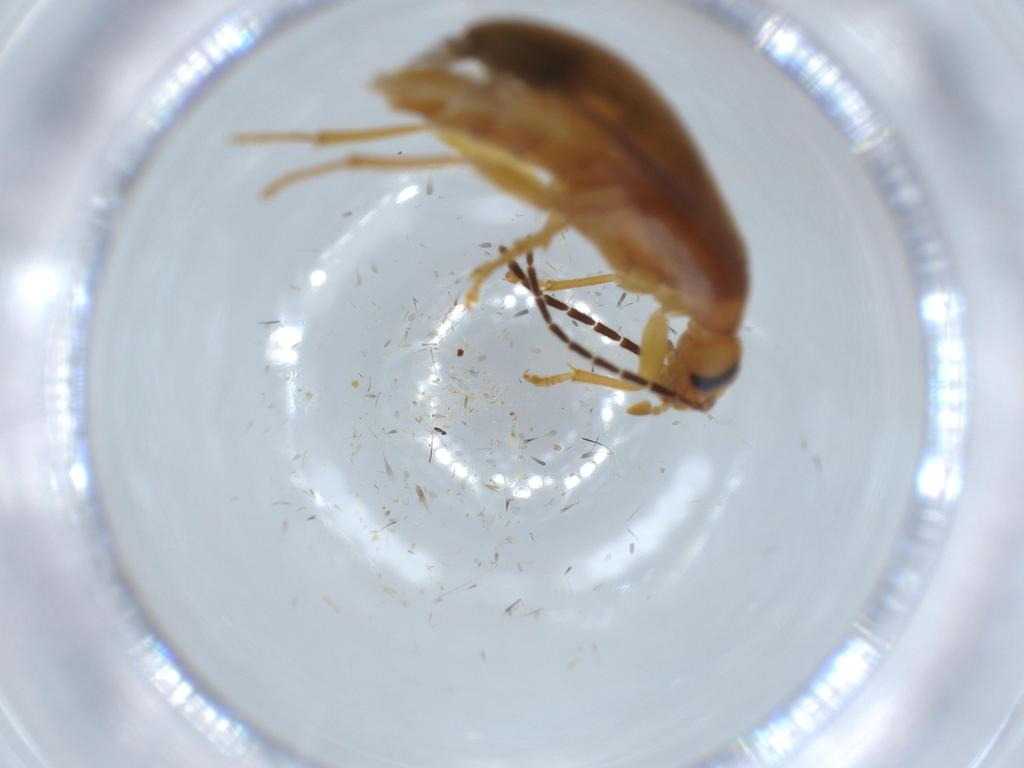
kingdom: Animalia
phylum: Arthropoda
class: Insecta
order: Coleoptera
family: Scraptiidae
